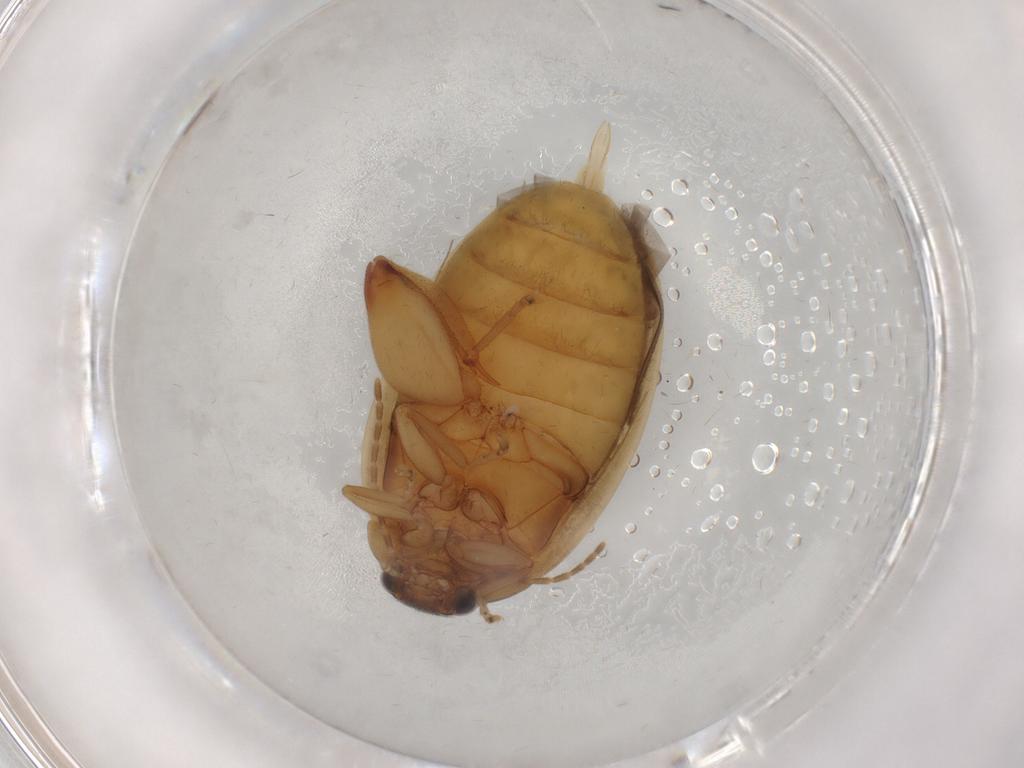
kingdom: Animalia
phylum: Arthropoda
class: Insecta
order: Coleoptera
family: Scirtidae
